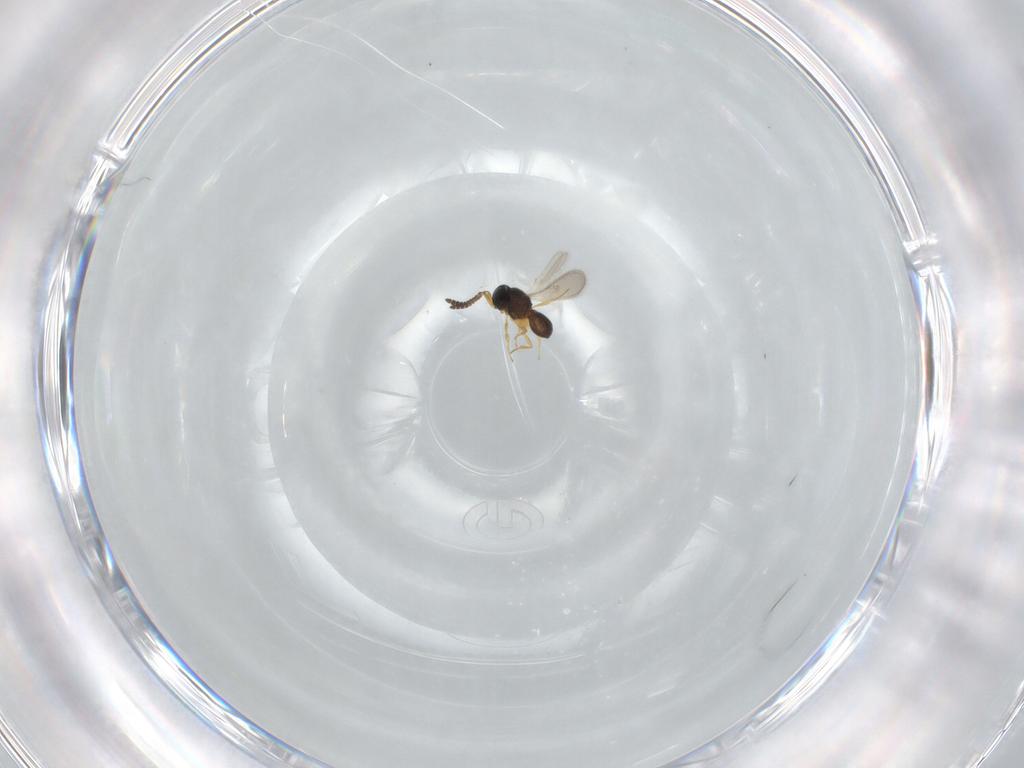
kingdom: Animalia
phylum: Arthropoda
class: Insecta
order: Hymenoptera
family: Scelionidae
